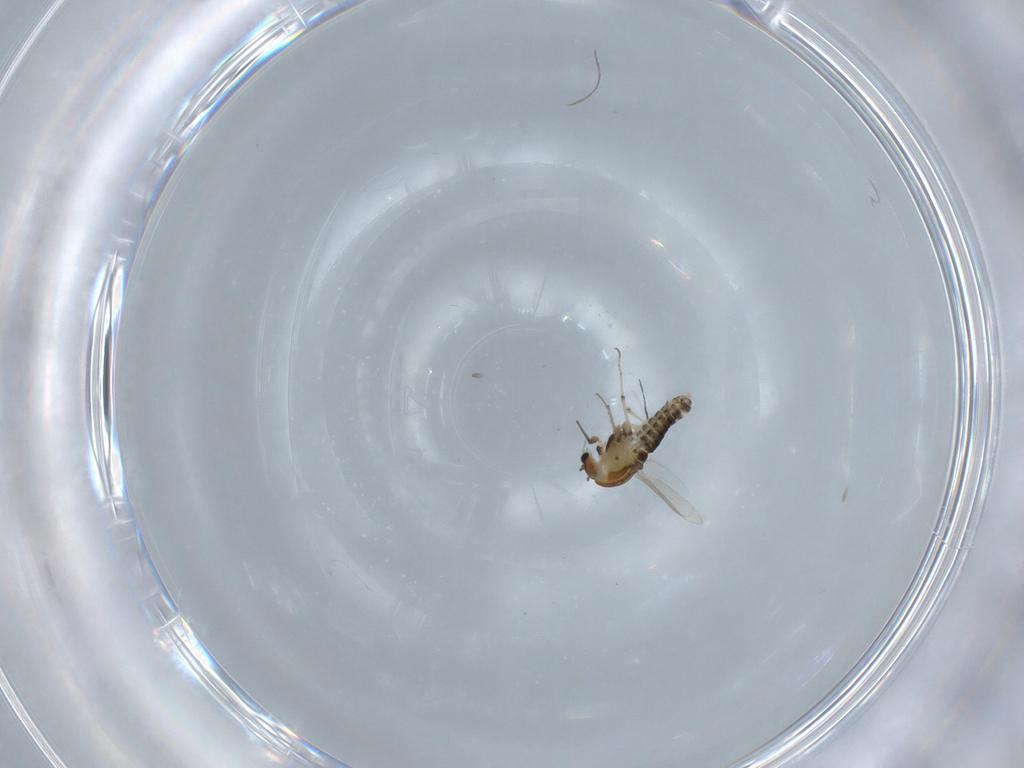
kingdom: Animalia
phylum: Arthropoda
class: Insecta
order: Diptera
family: Chironomidae
